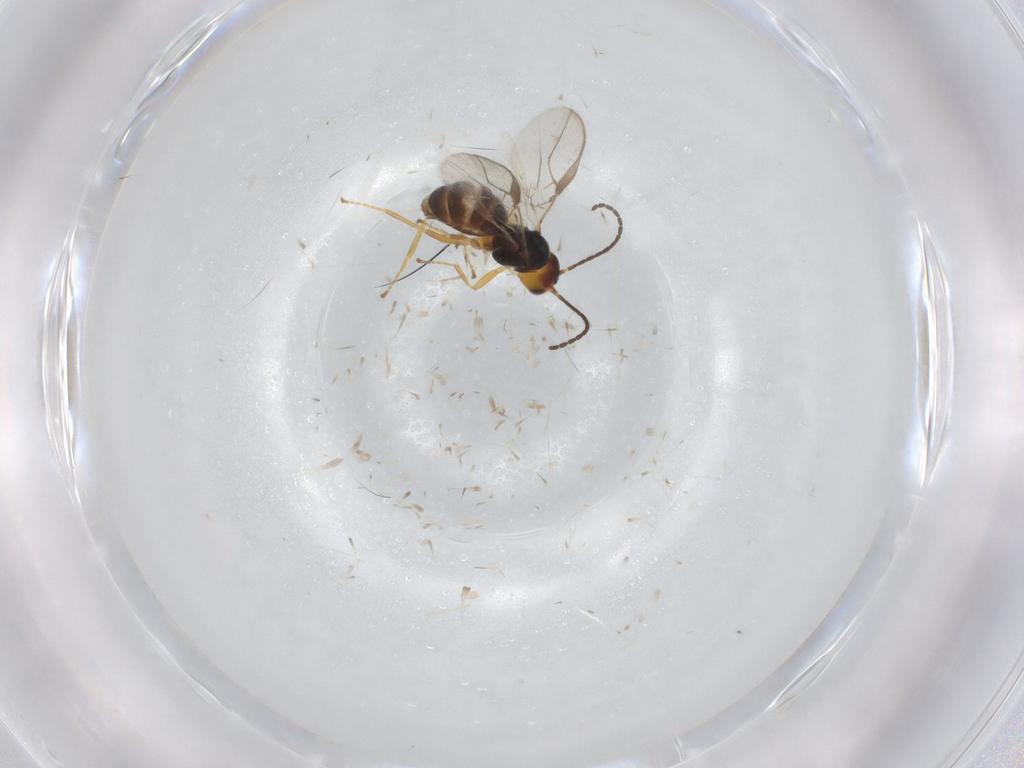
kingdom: Animalia
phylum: Arthropoda
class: Insecta
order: Hymenoptera
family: Braconidae
